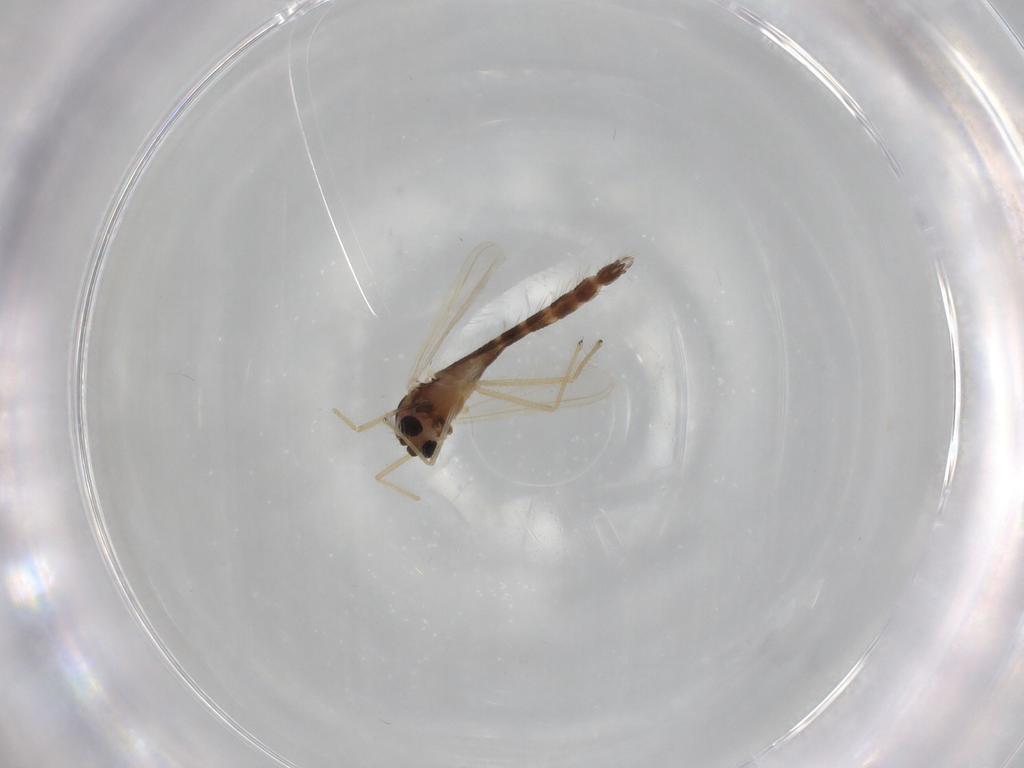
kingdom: Animalia
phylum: Arthropoda
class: Insecta
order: Diptera
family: Chironomidae
